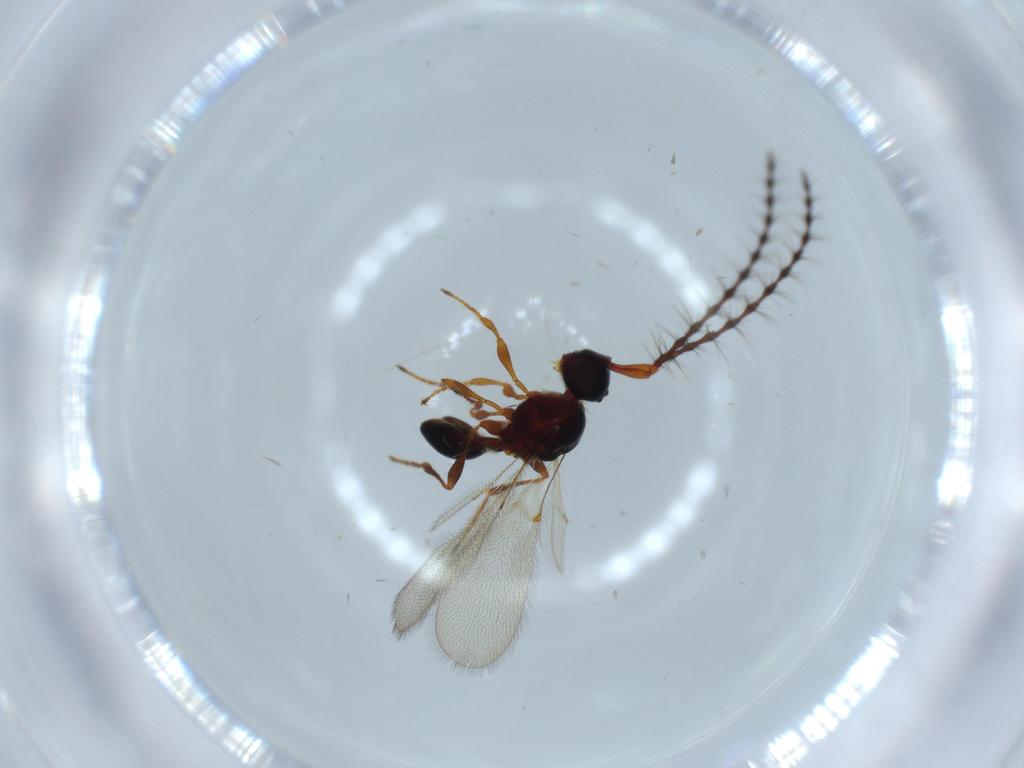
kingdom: Animalia
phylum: Arthropoda
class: Insecta
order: Hymenoptera
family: Diapriidae
